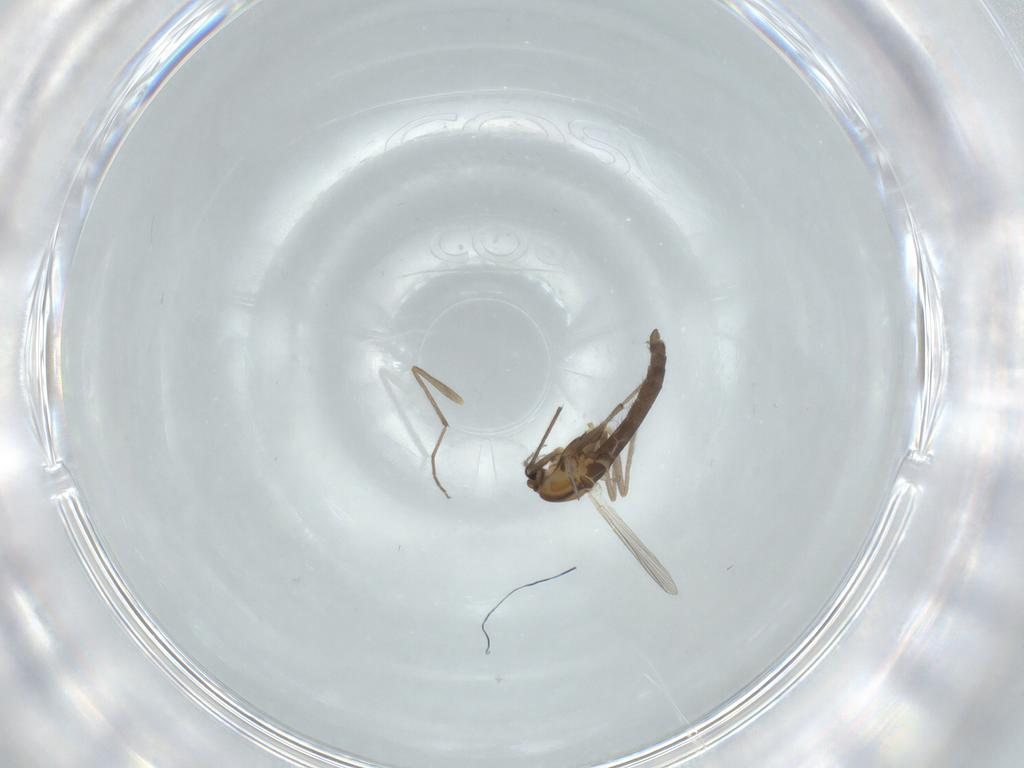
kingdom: Animalia
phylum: Arthropoda
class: Insecta
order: Diptera
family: Chironomidae
